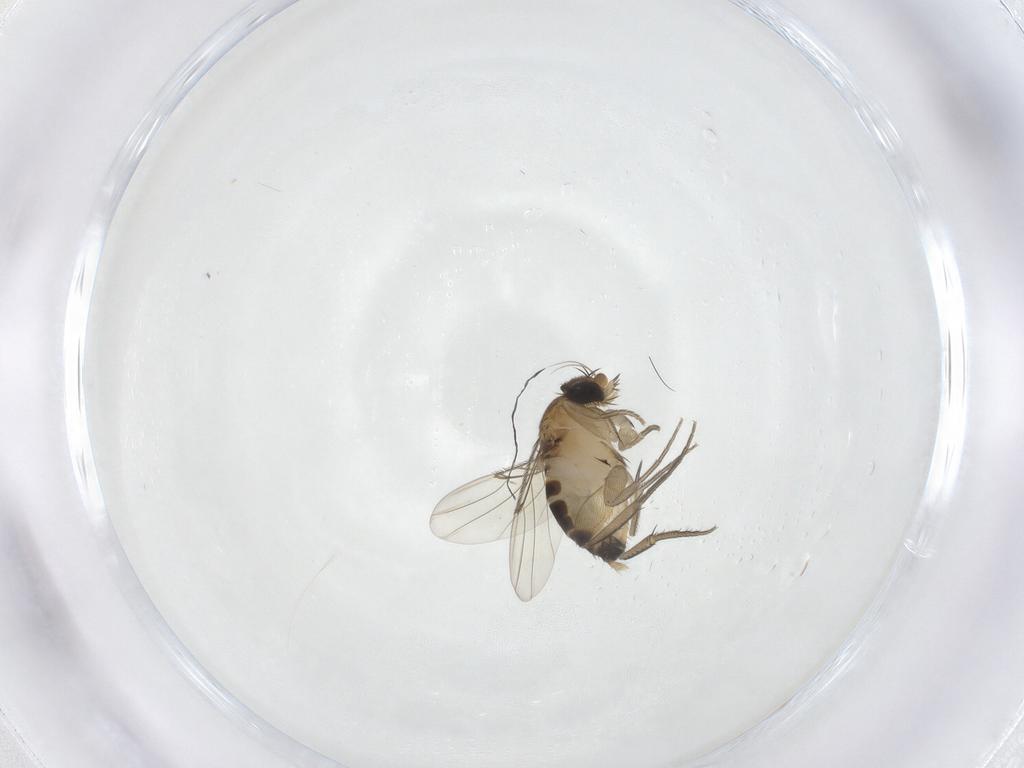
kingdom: Animalia
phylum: Arthropoda
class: Insecta
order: Diptera
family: Phoridae
